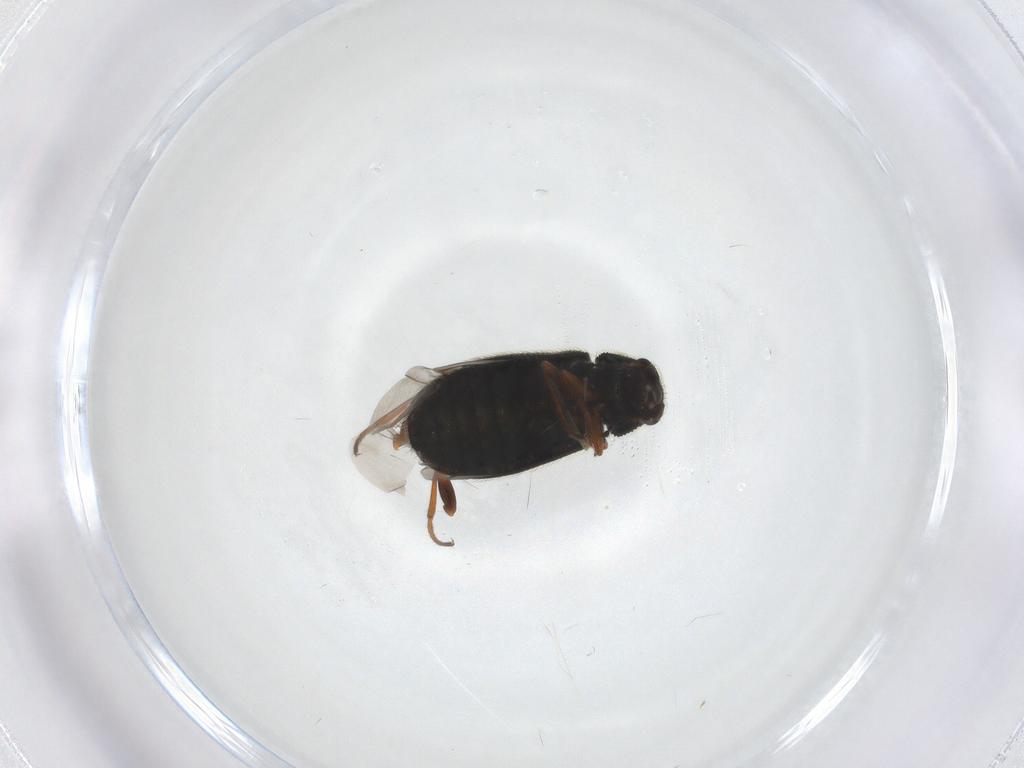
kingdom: Animalia
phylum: Arthropoda
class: Insecta
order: Coleoptera
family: Melyridae
